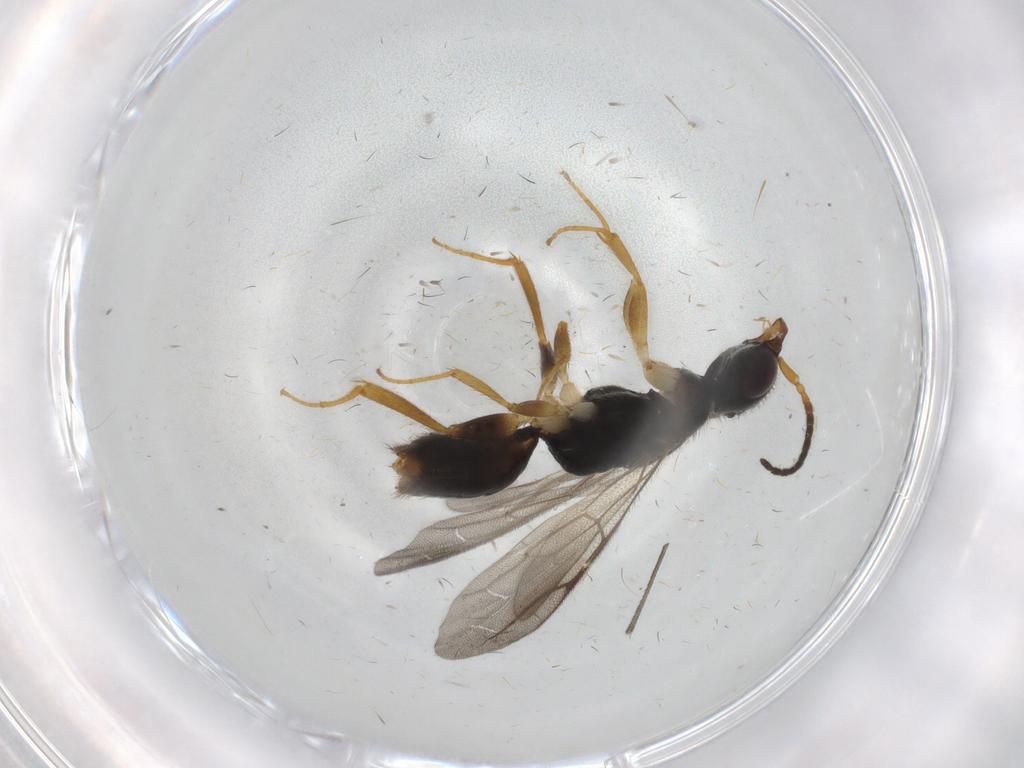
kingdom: Animalia
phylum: Arthropoda
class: Insecta
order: Hymenoptera
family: Bethylidae
